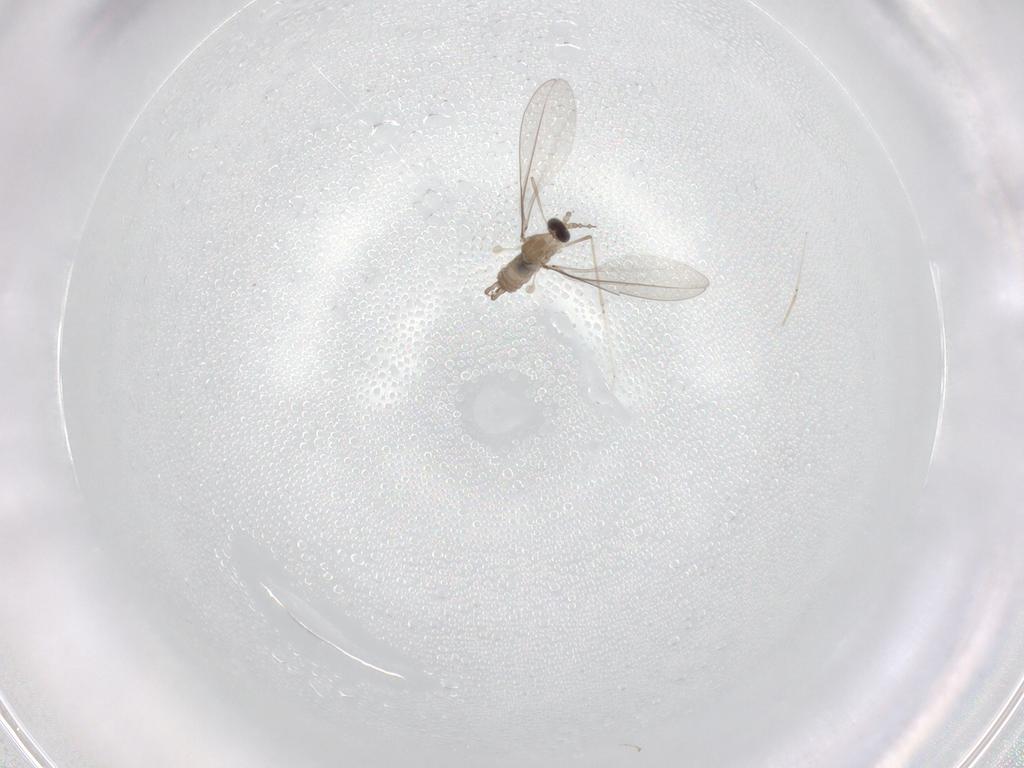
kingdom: Animalia
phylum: Arthropoda
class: Insecta
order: Diptera
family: Cecidomyiidae
